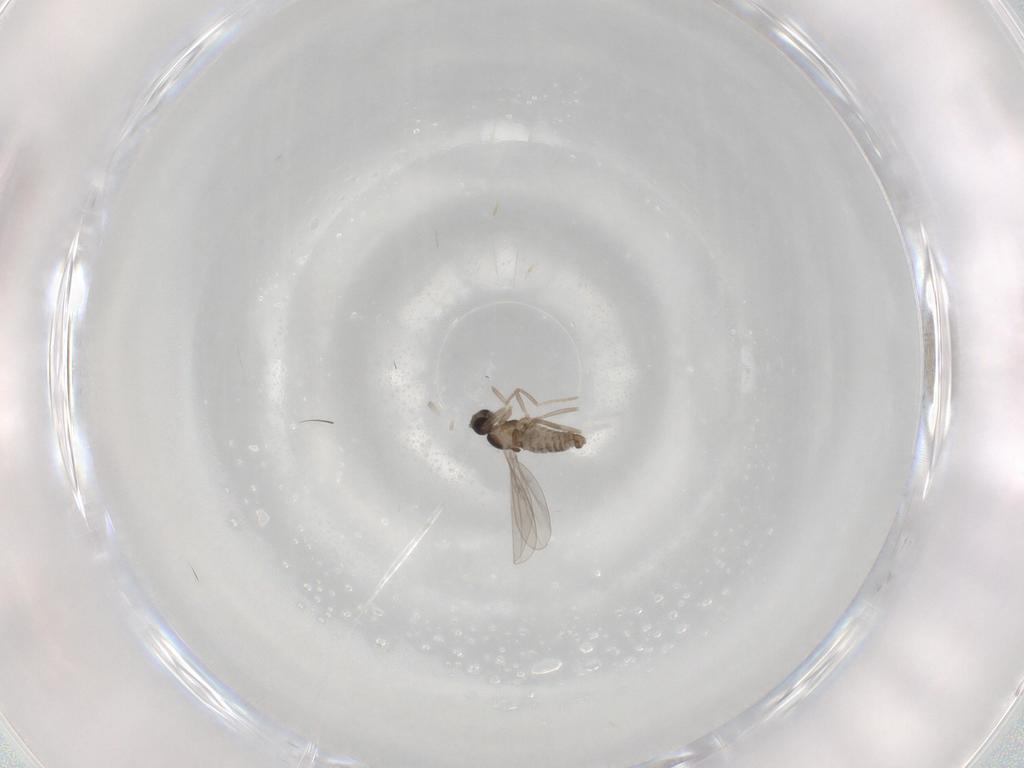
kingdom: Animalia
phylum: Arthropoda
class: Insecta
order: Diptera
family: Cecidomyiidae
